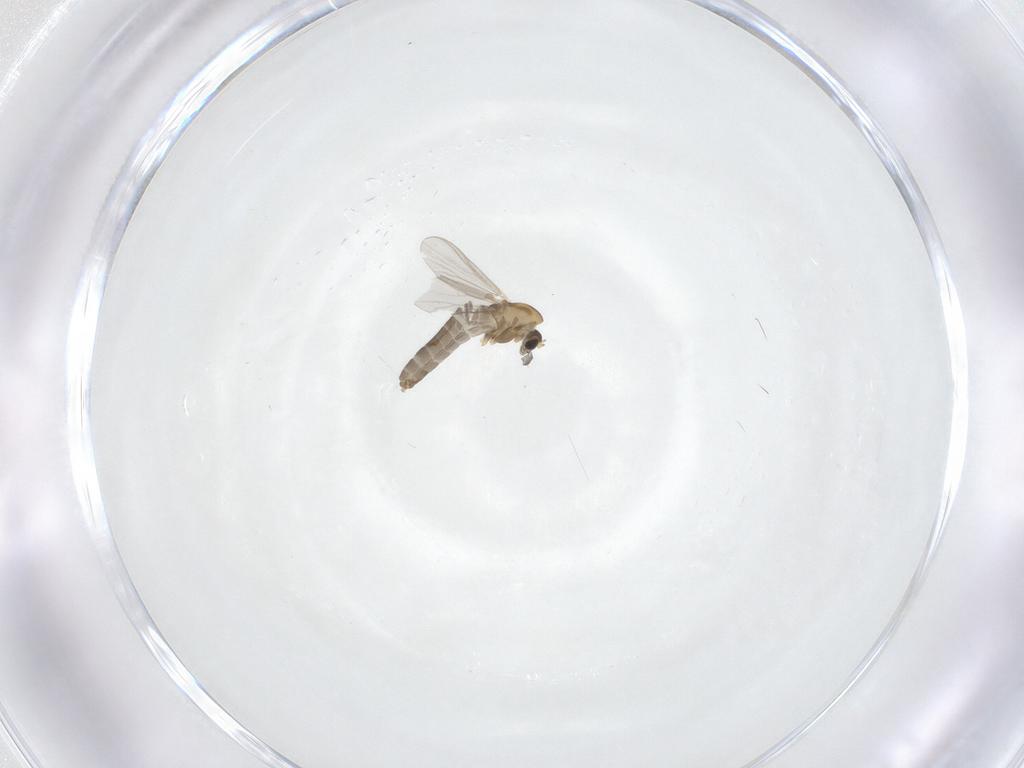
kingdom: Animalia
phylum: Arthropoda
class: Insecta
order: Diptera
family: Chironomidae
